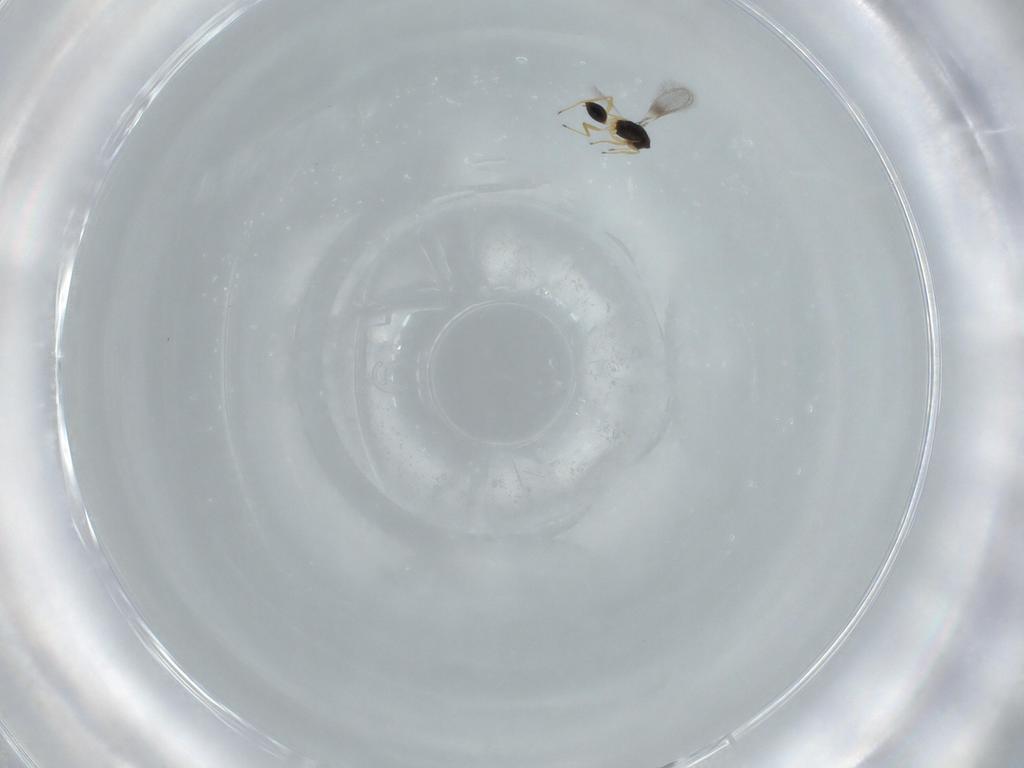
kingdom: Animalia
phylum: Arthropoda
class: Insecta
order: Hymenoptera
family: Mymaridae
